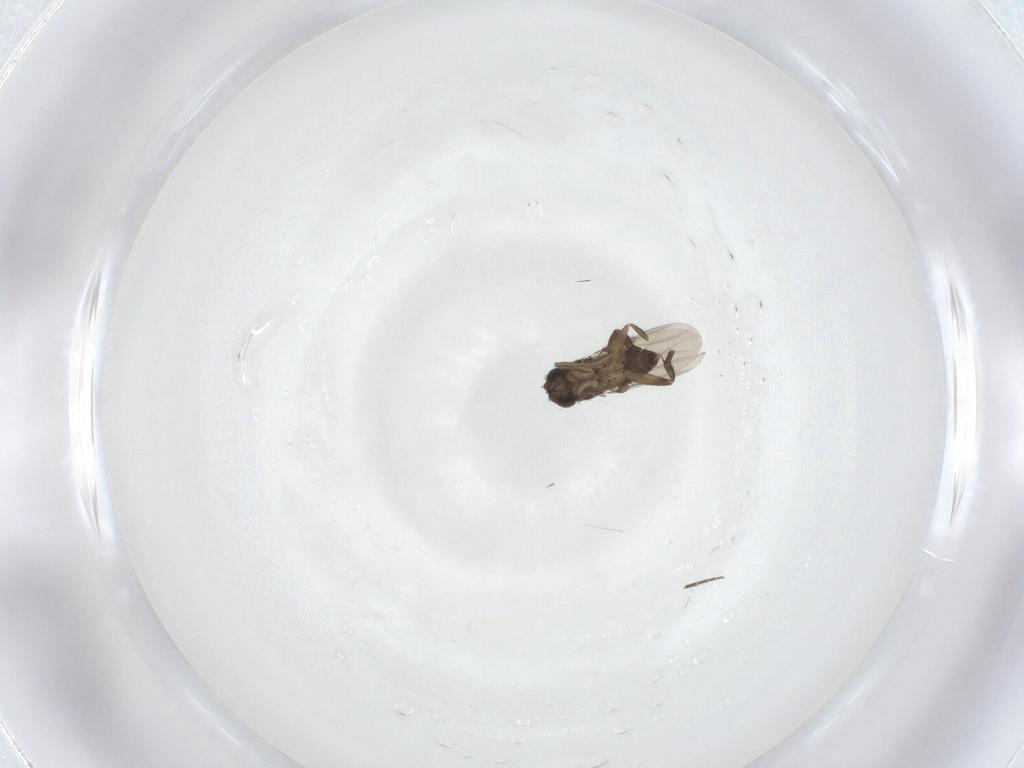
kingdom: Animalia
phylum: Arthropoda
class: Insecta
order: Diptera
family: Phoridae
